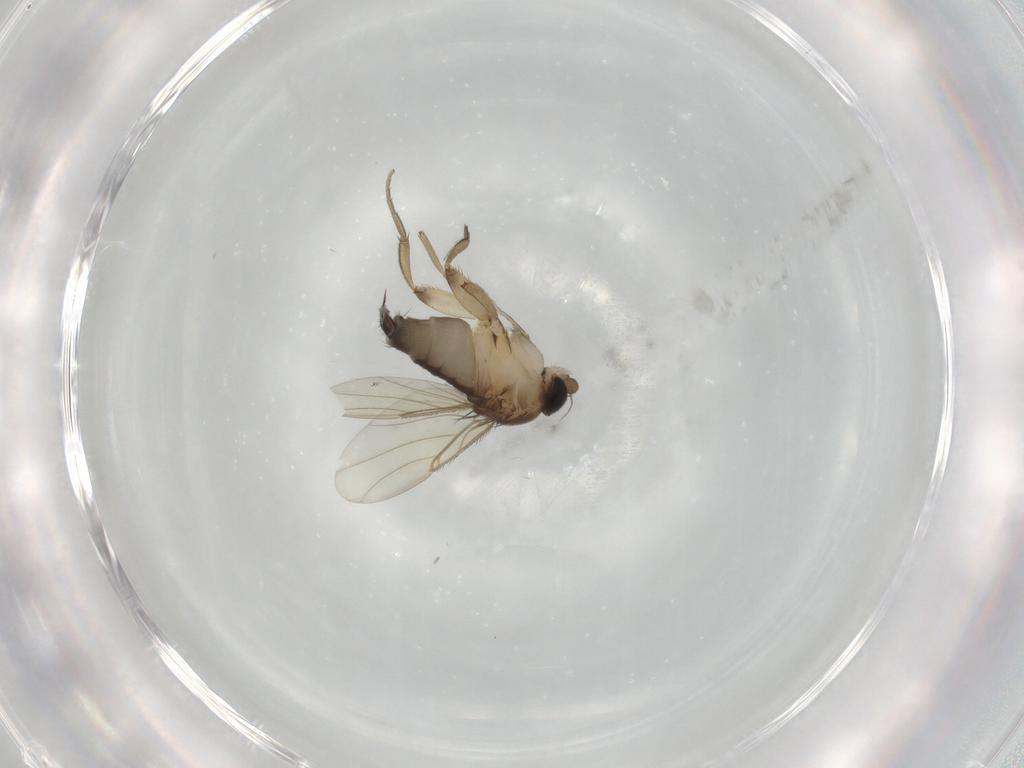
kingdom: Animalia
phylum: Arthropoda
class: Insecta
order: Diptera
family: Phoridae
